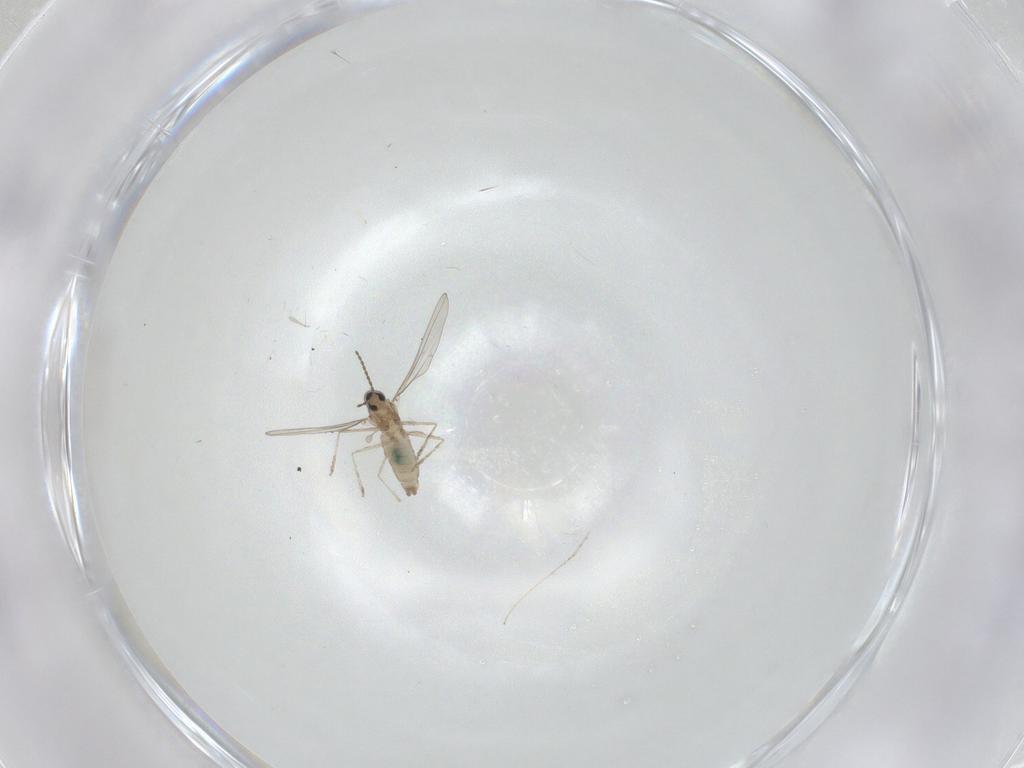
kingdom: Animalia
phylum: Arthropoda
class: Insecta
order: Diptera
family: Cecidomyiidae
